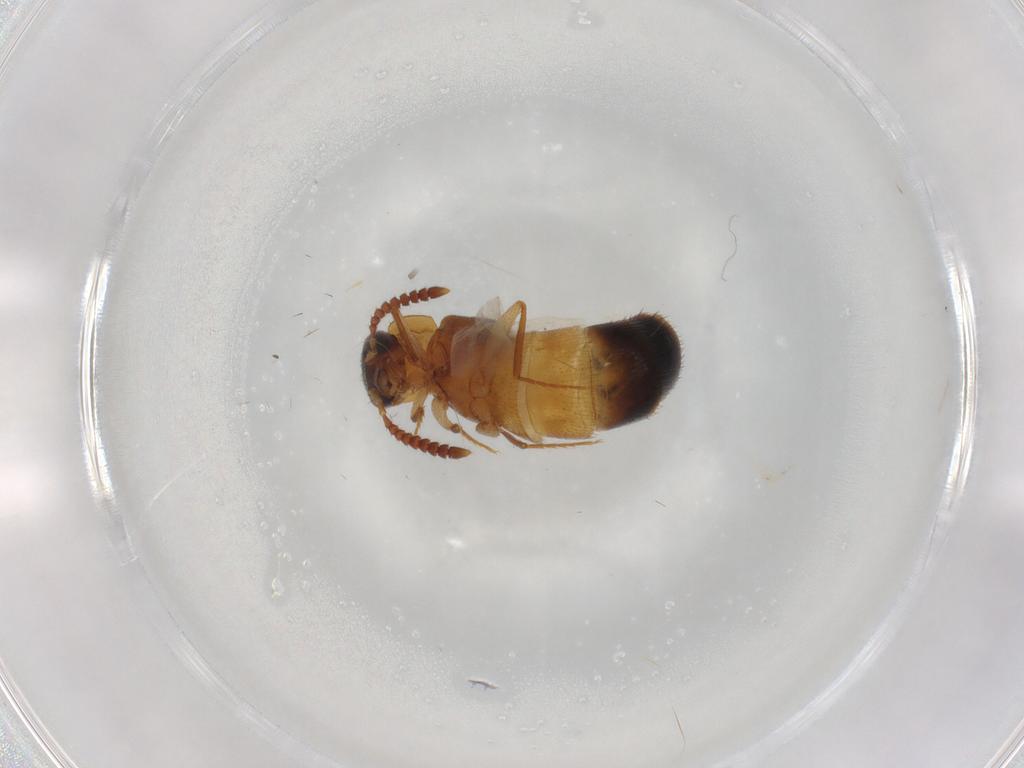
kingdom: Animalia
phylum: Arthropoda
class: Insecta
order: Coleoptera
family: Staphylinidae
